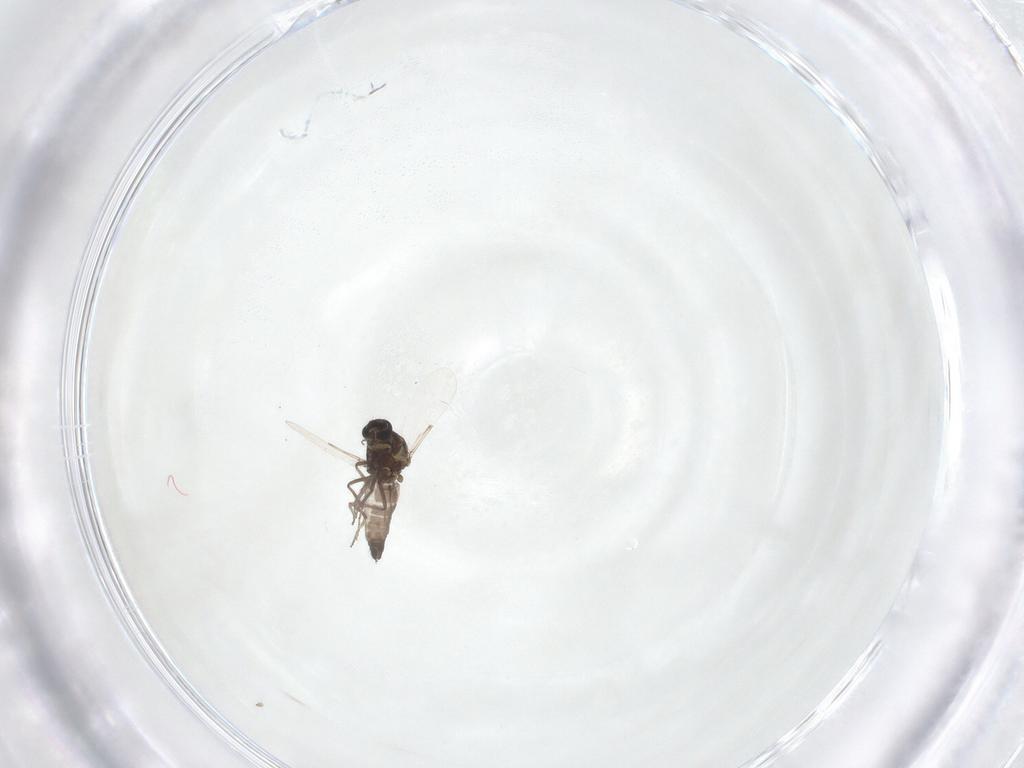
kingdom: Animalia
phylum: Arthropoda
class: Insecta
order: Diptera
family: Ceratopogonidae
